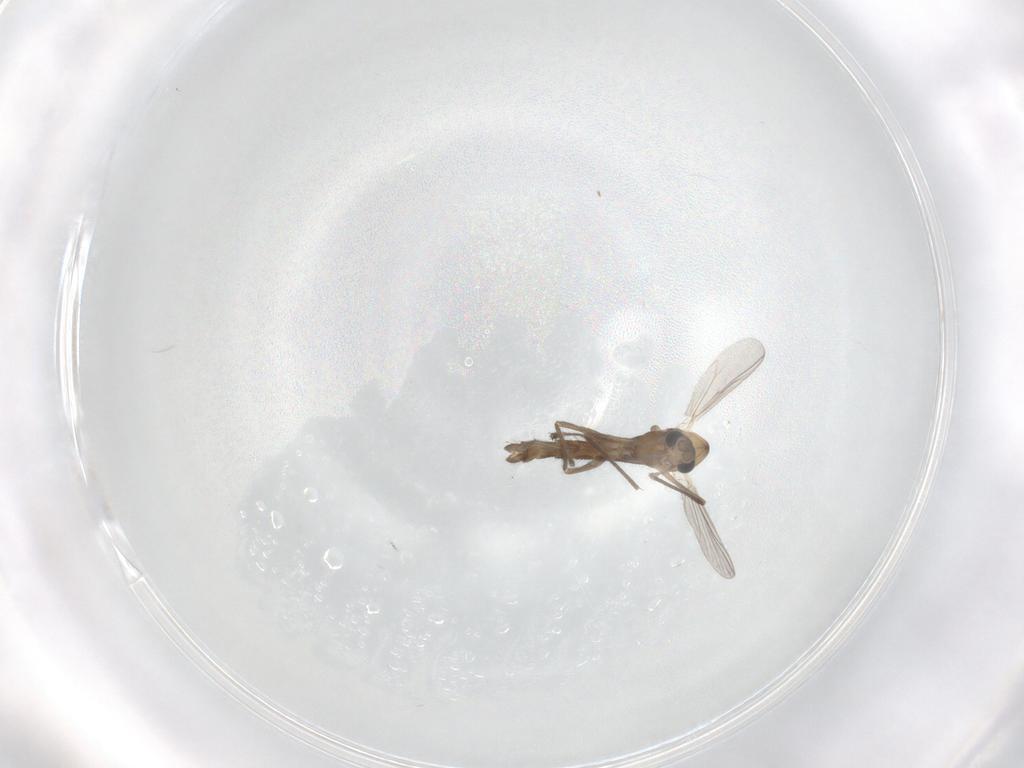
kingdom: Animalia
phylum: Arthropoda
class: Insecta
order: Diptera
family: Chironomidae
